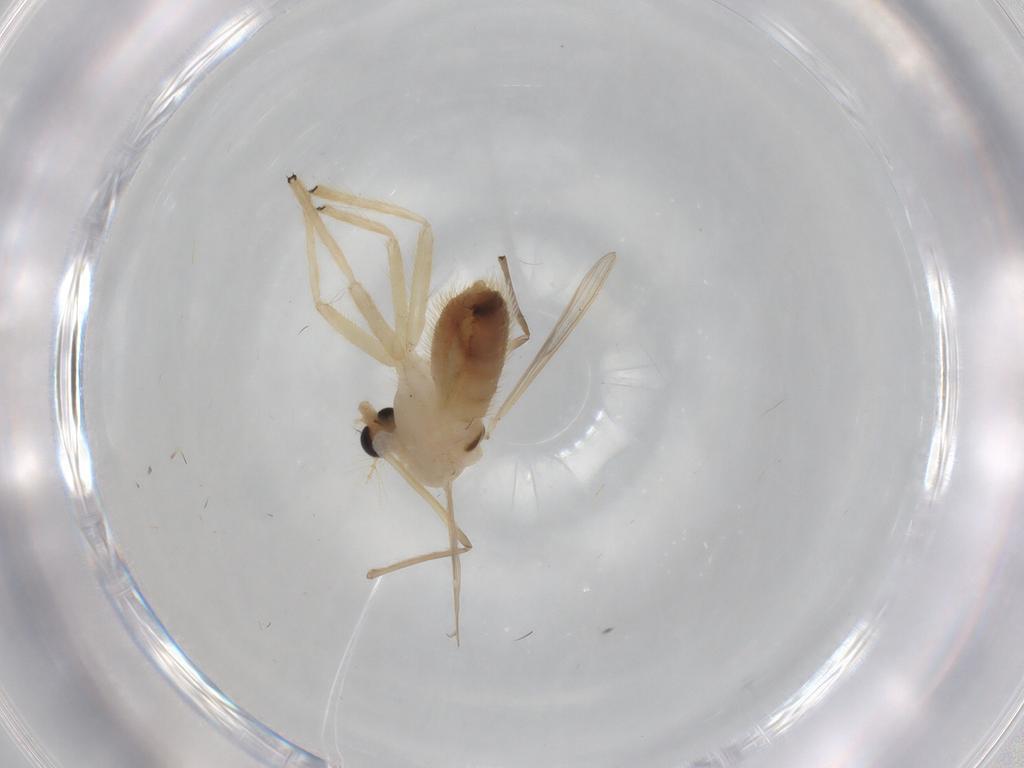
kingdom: Animalia
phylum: Arthropoda
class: Insecta
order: Diptera
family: Chironomidae
